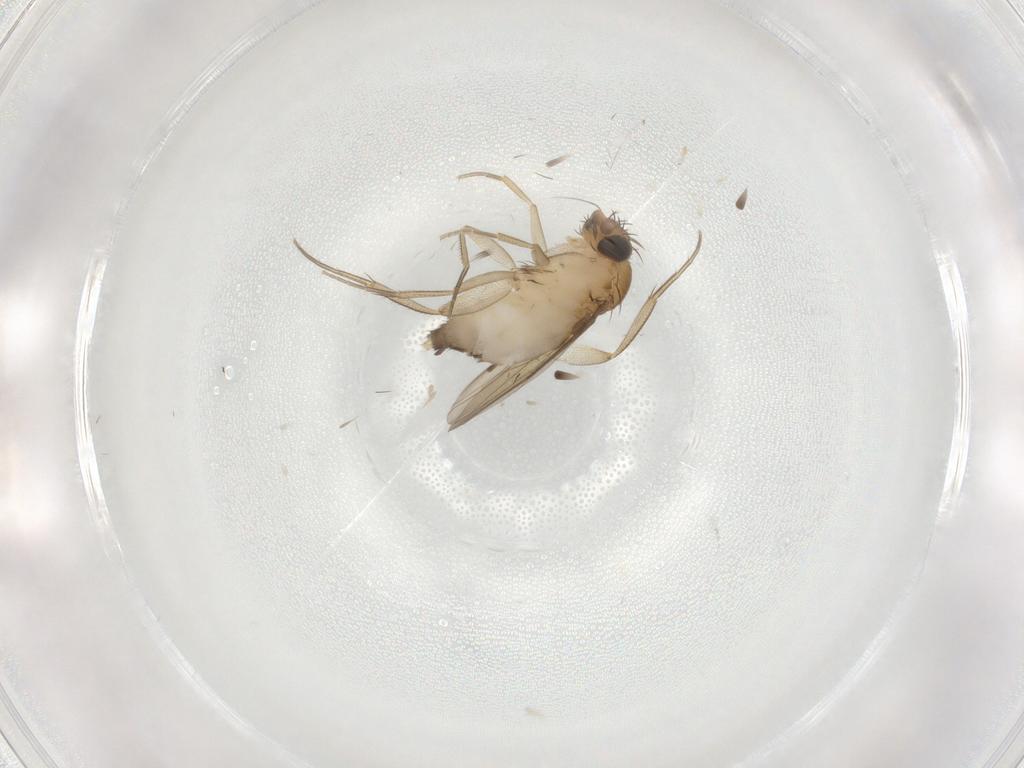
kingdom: Animalia
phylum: Arthropoda
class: Insecta
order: Diptera
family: Phoridae
